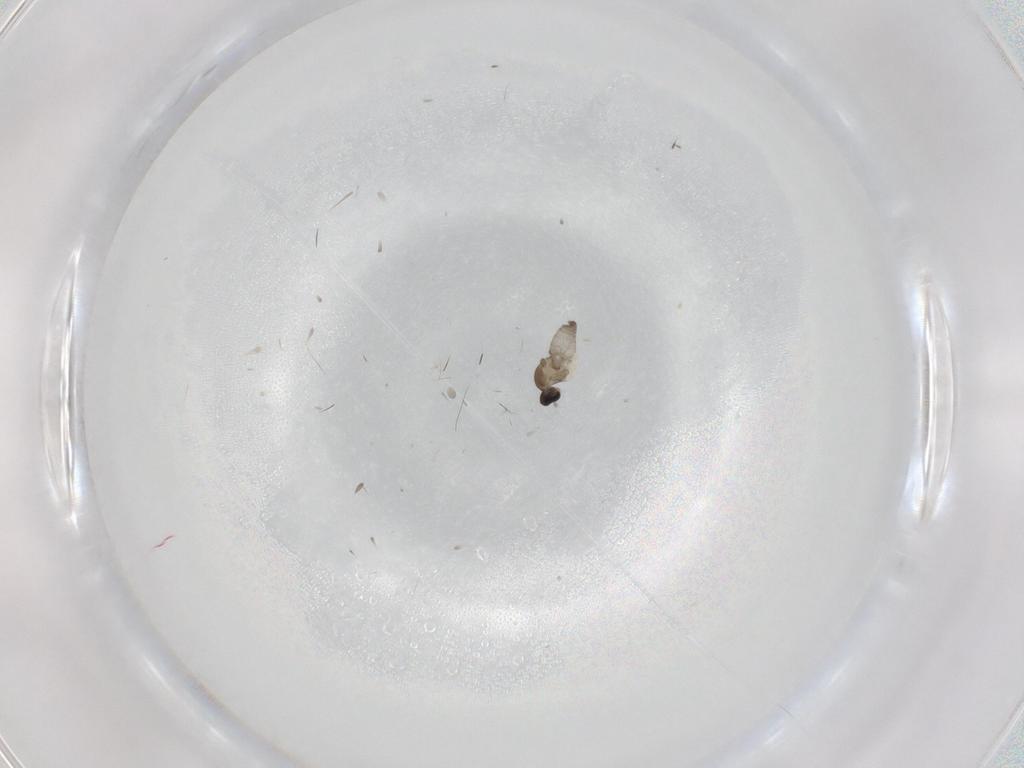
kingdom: Animalia
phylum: Arthropoda
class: Insecta
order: Diptera
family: Cecidomyiidae
